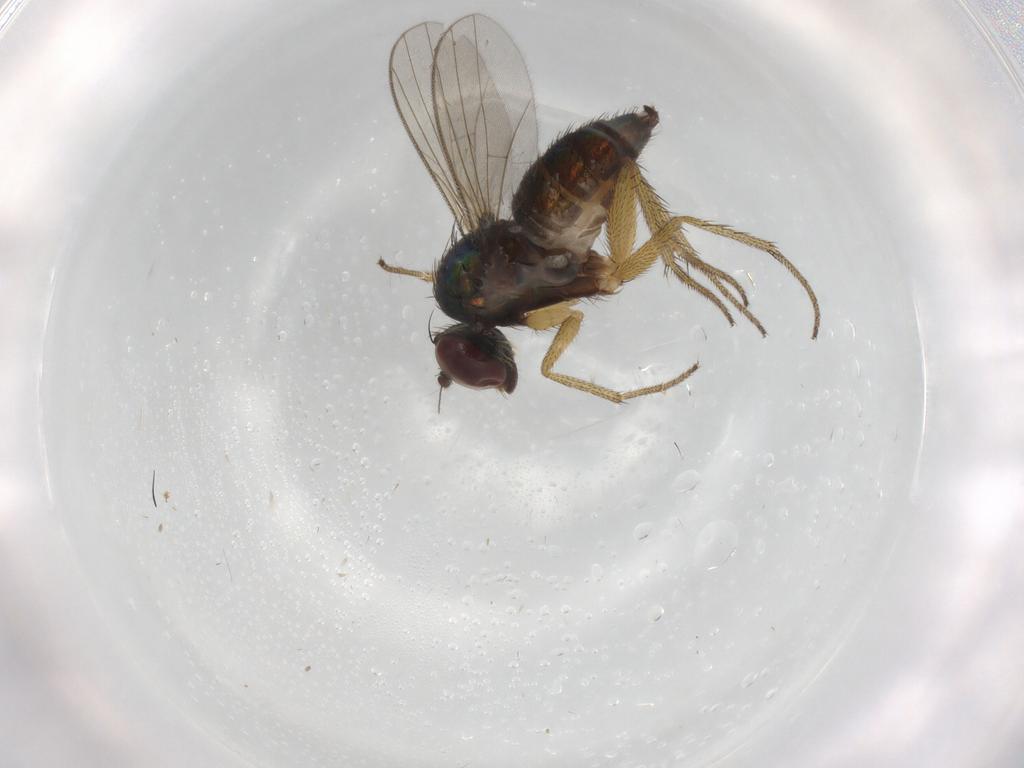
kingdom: Animalia
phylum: Arthropoda
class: Insecta
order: Diptera
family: Dolichopodidae
